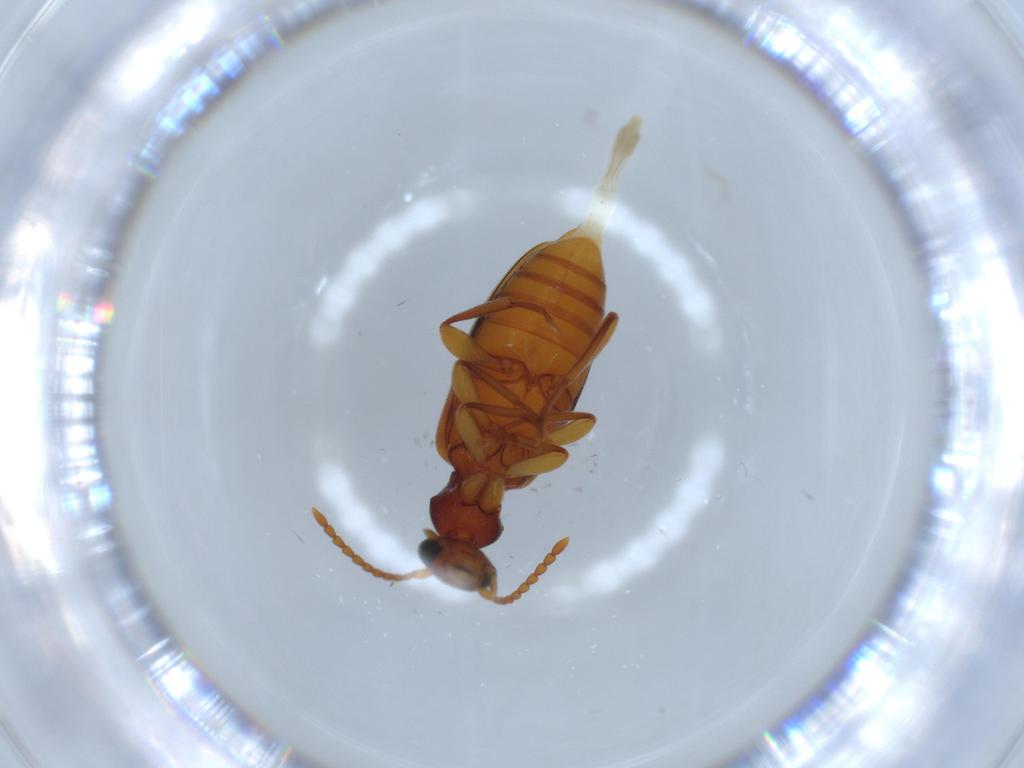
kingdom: Animalia
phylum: Arthropoda
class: Insecta
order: Coleoptera
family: Anthicidae
